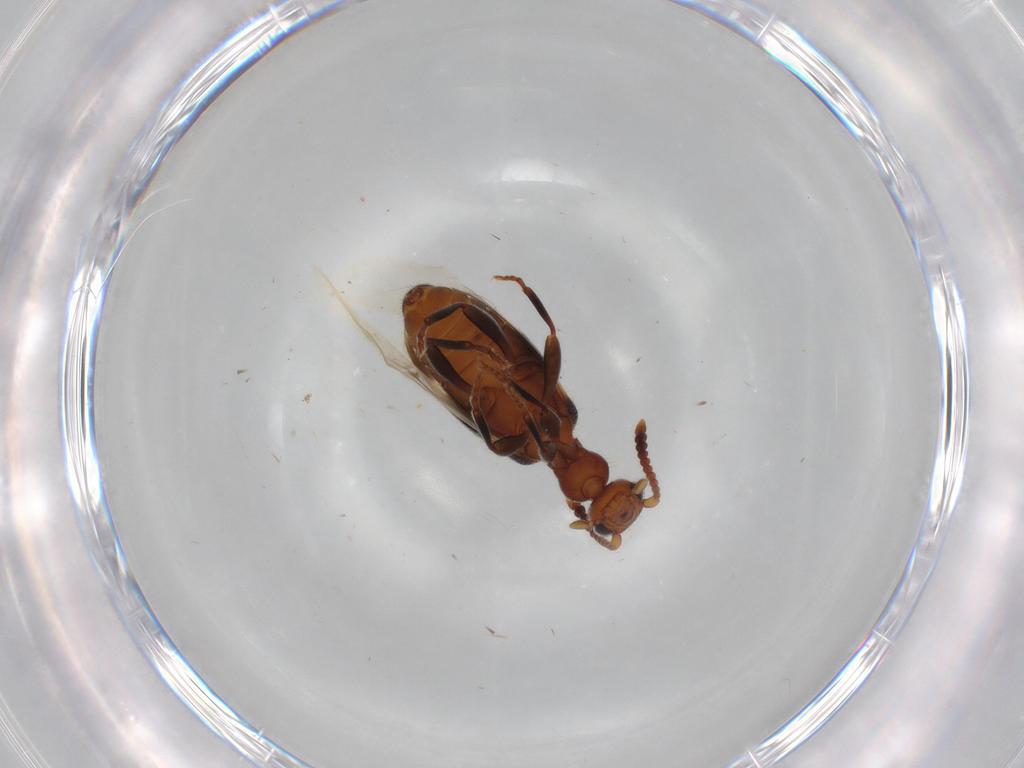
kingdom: Animalia
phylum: Arthropoda
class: Insecta
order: Coleoptera
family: Anthicidae
